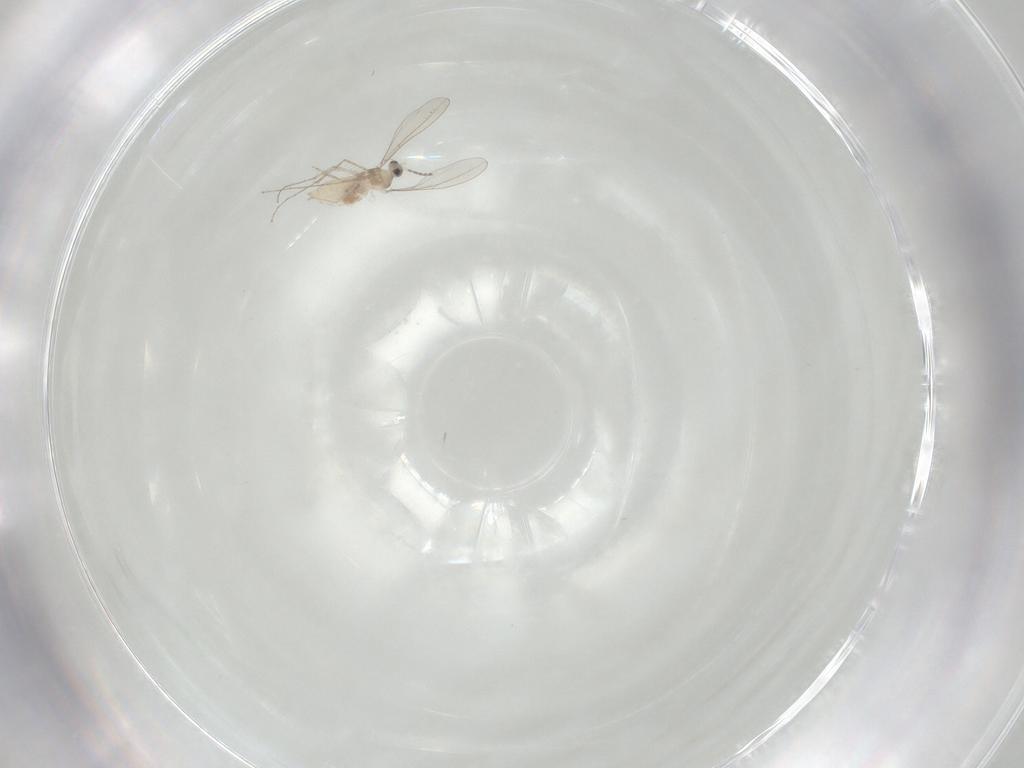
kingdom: Animalia
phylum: Arthropoda
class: Insecta
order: Diptera
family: Cecidomyiidae
